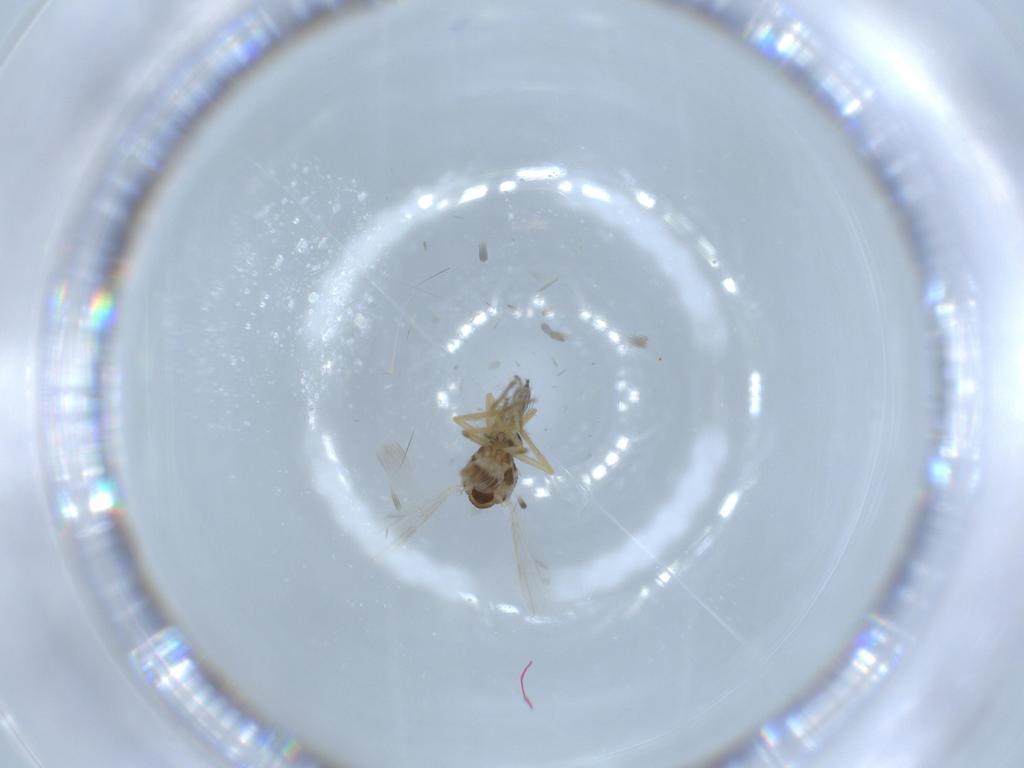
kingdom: Animalia
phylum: Arthropoda
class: Insecta
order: Diptera
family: Ceratopogonidae
